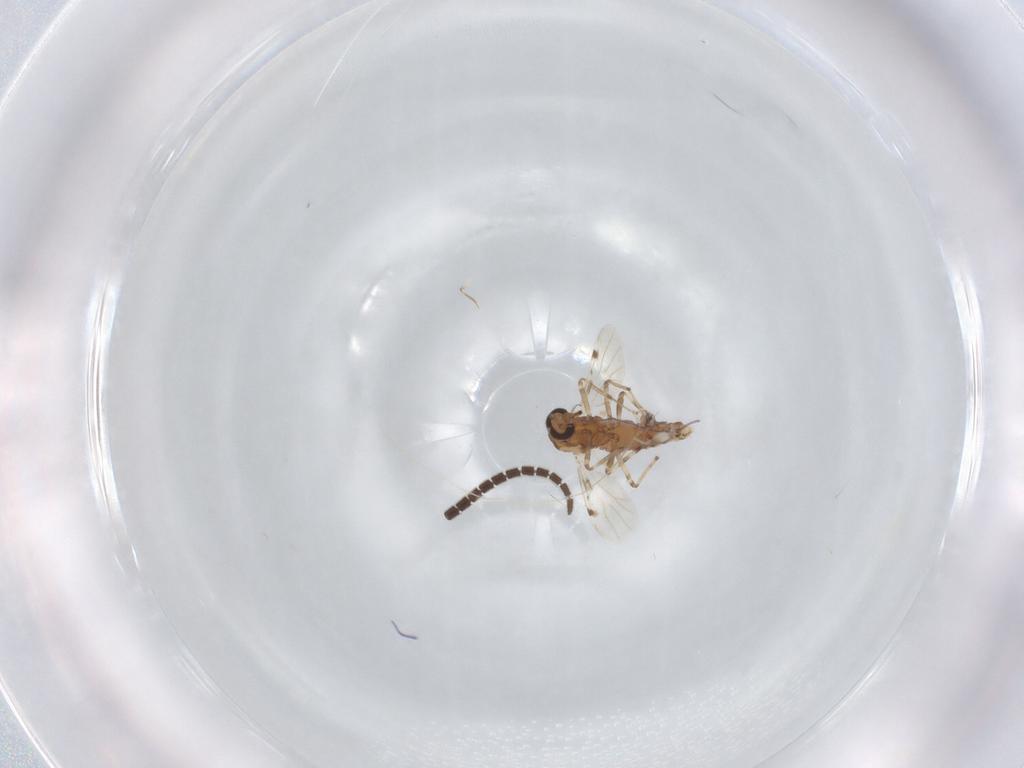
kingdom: Animalia
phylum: Arthropoda
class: Insecta
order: Diptera
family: Ceratopogonidae
